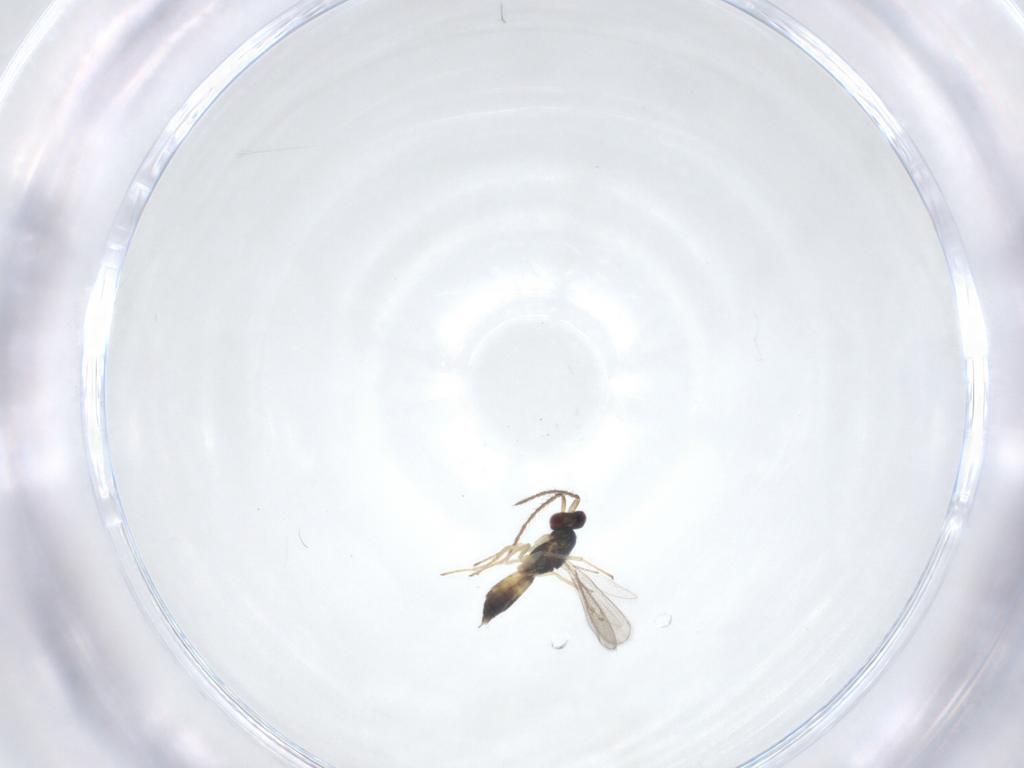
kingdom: Animalia
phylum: Arthropoda
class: Insecta
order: Hymenoptera
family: Eulophidae
